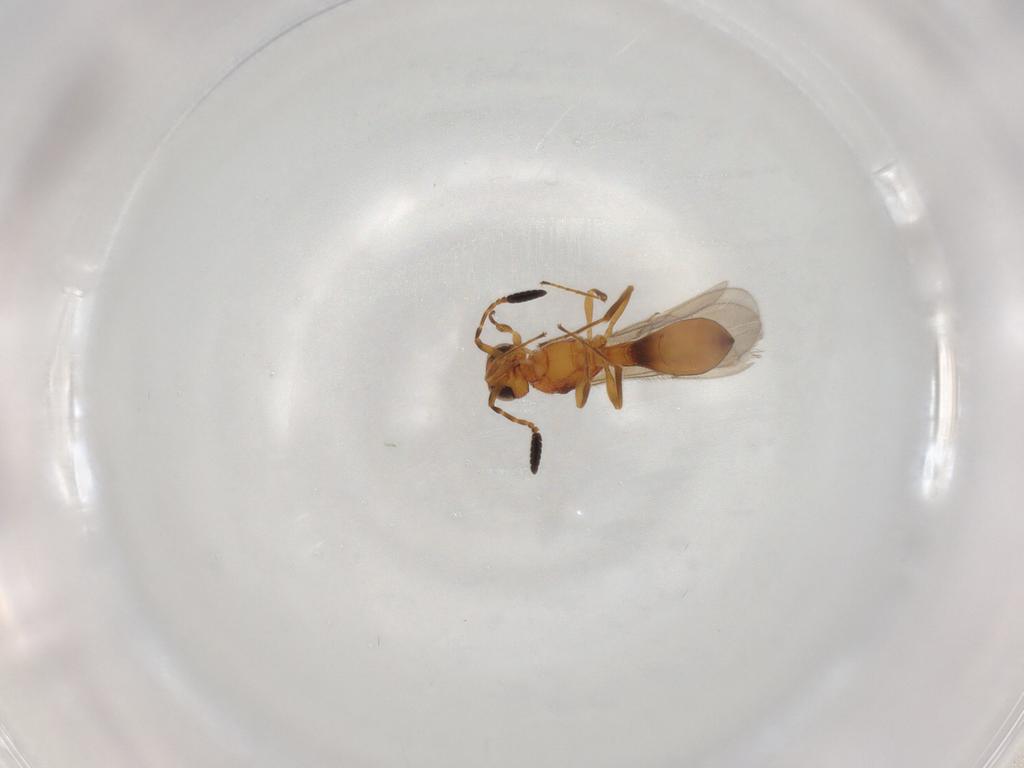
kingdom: Animalia
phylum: Arthropoda
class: Insecta
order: Hymenoptera
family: Scelionidae
